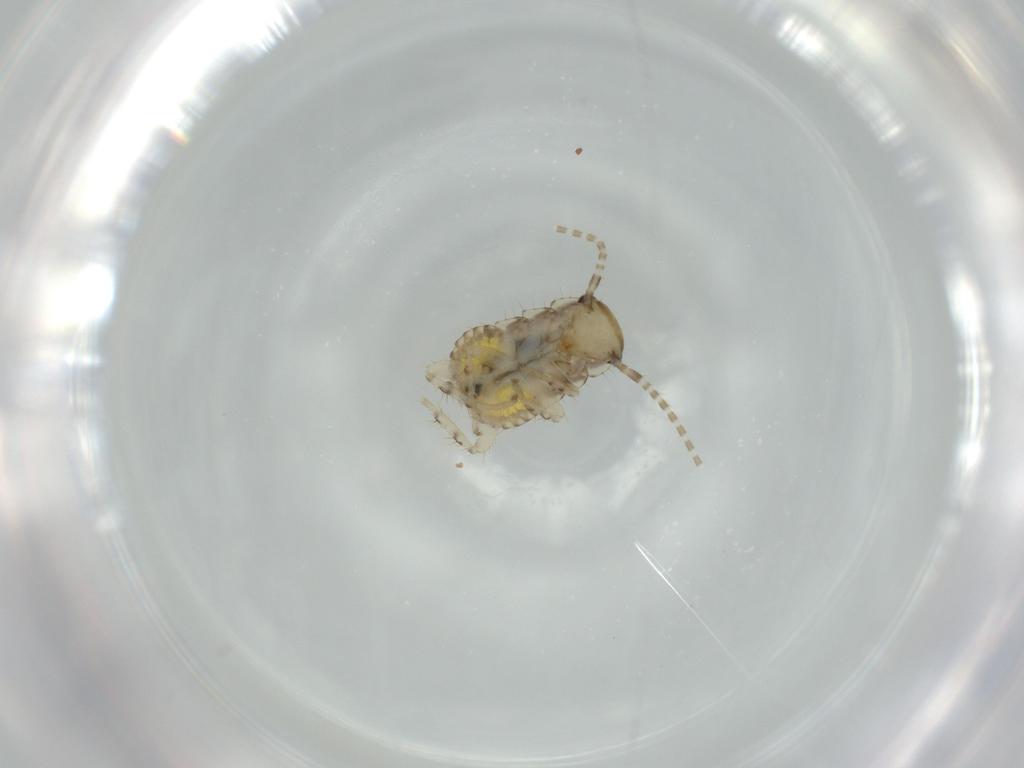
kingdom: Animalia
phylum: Arthropoda
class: Insecta
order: Blattodea
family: Ectobiidae
